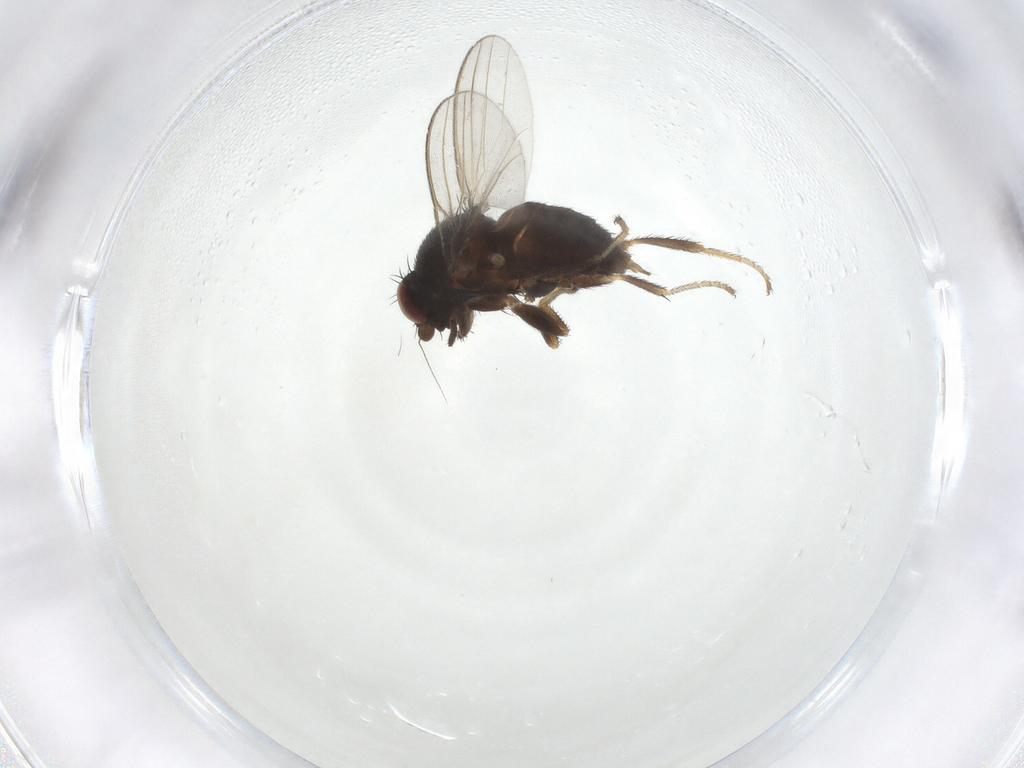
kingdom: Animalia
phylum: Arthropoda
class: Insecta
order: Diptera
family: Milichiidae
